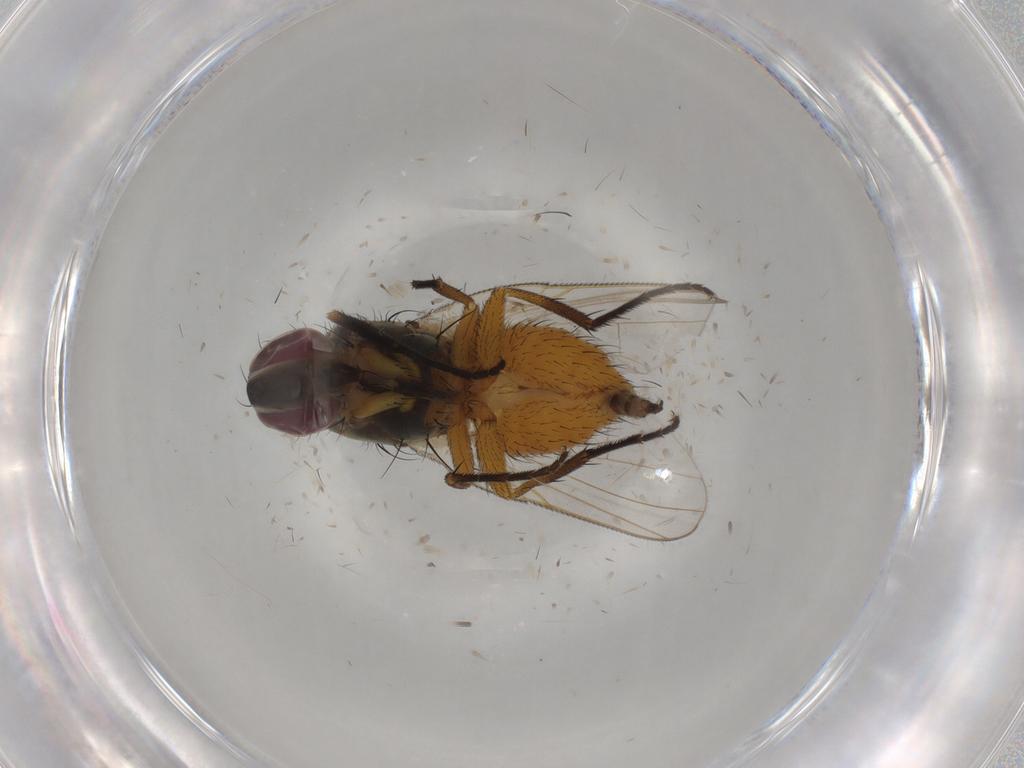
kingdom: Animalia
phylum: Arthropoda
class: Insecta
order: Diptera
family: Muscidae
